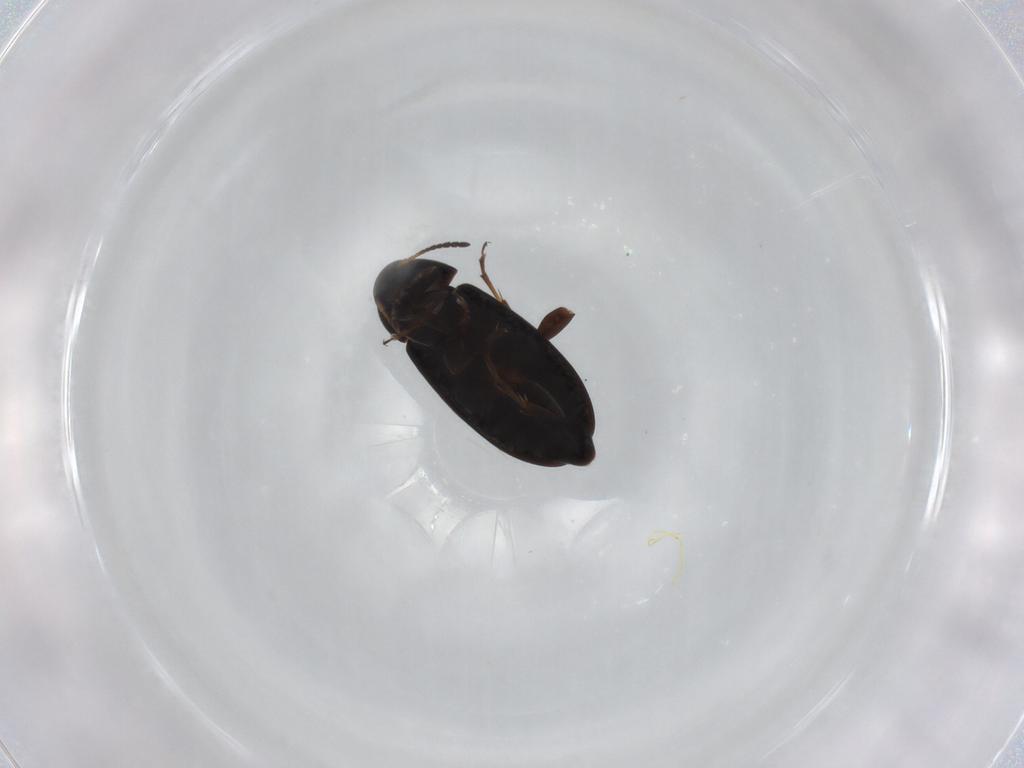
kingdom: Animalia
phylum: Arthropoda
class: Insecta
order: Coleoptera
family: Scraptiidae
